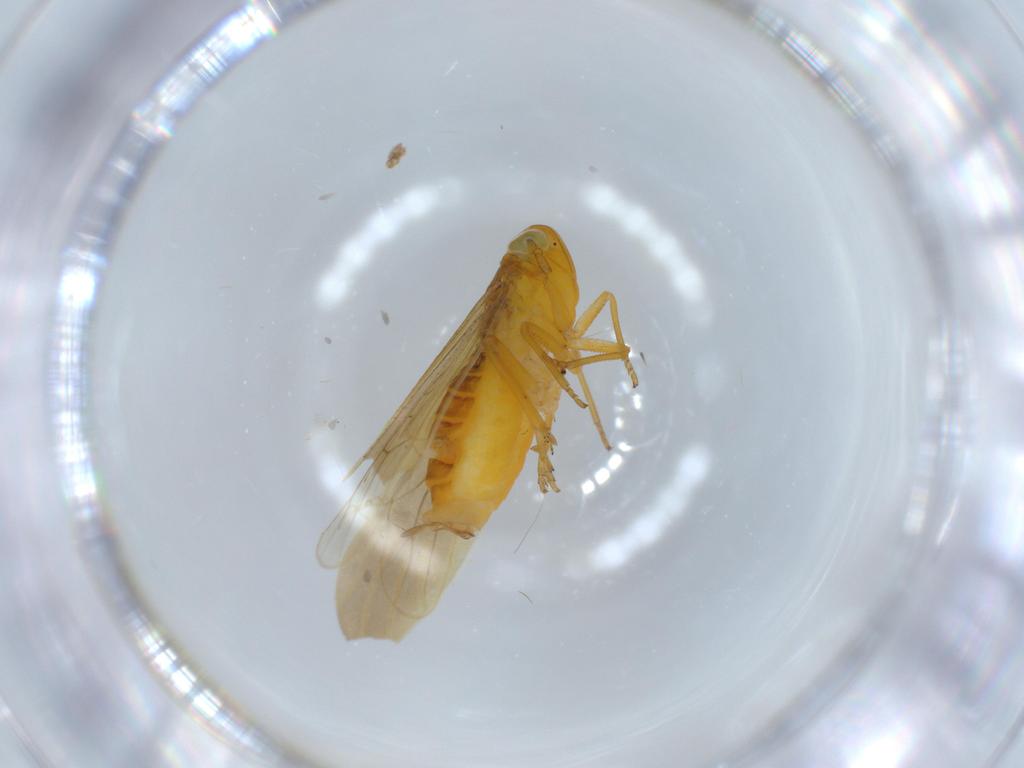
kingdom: Animalia
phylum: Arthropoda
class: Insecta
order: Hemiptera
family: Delphacidae
